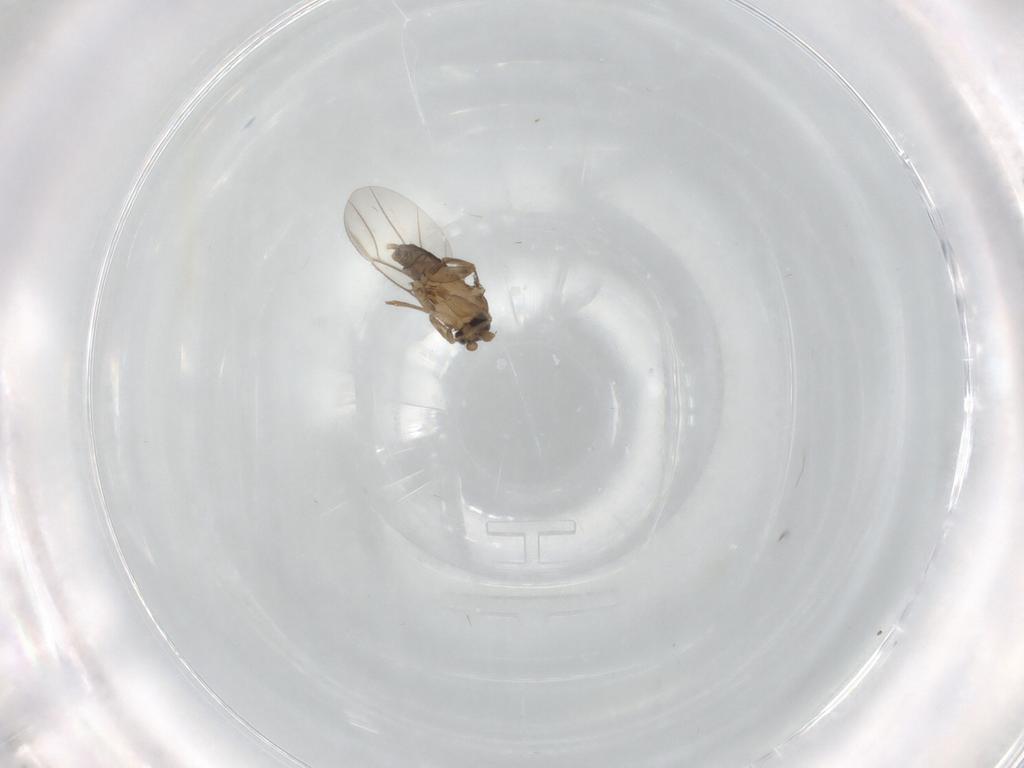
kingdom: Animalia
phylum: Arthropoda
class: Insecta
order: Diptera
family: Phoridae
